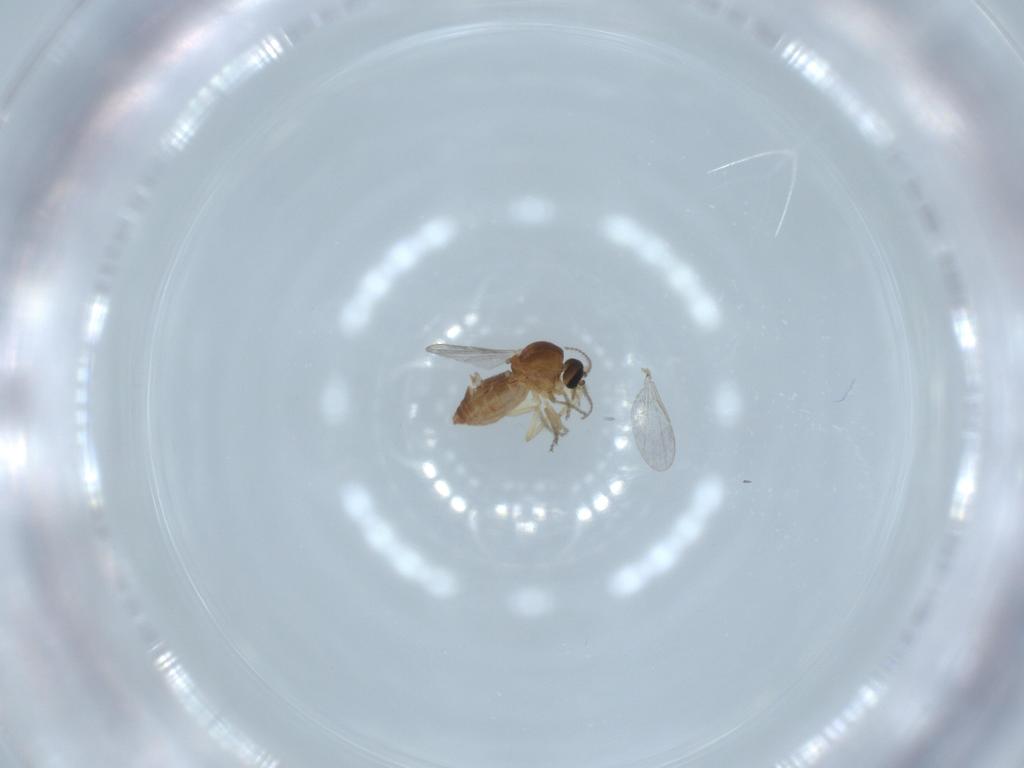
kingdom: Animalia
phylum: Arthropoda
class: Insecta
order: Diptera
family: Ceratopogonidae
